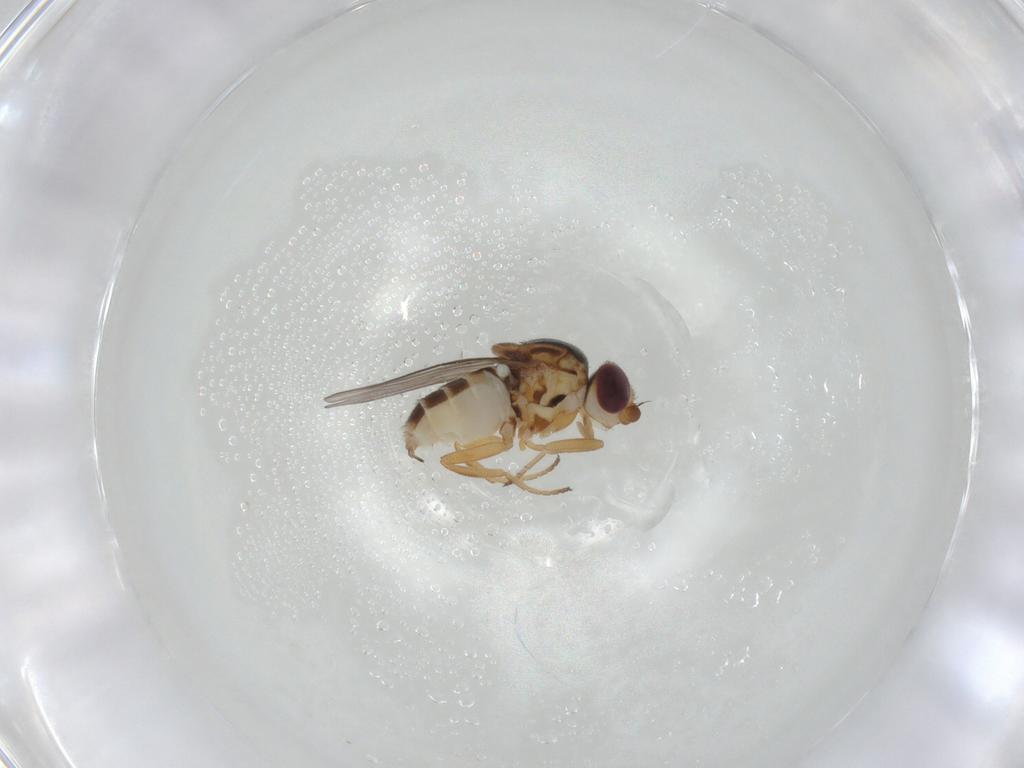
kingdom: Animalia
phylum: Arthropoda
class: Insecta
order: Diptera
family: Chloropidae
